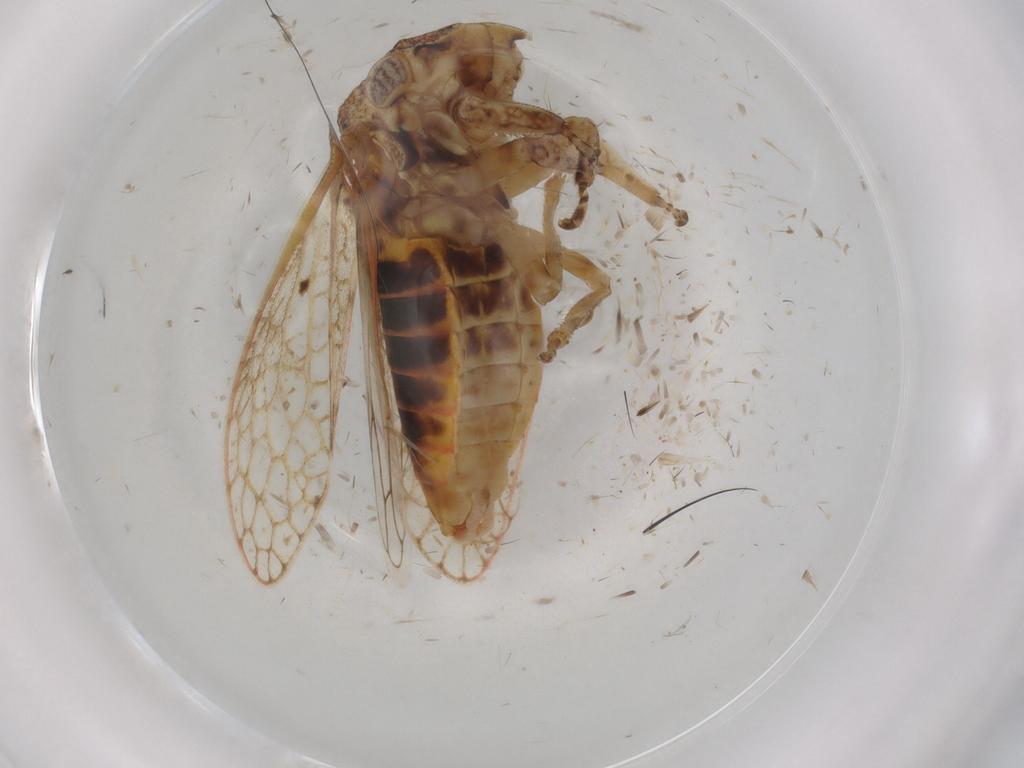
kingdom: Animalia
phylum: Arthropoda
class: Insecta
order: Hemiptera
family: Cicadellidae
